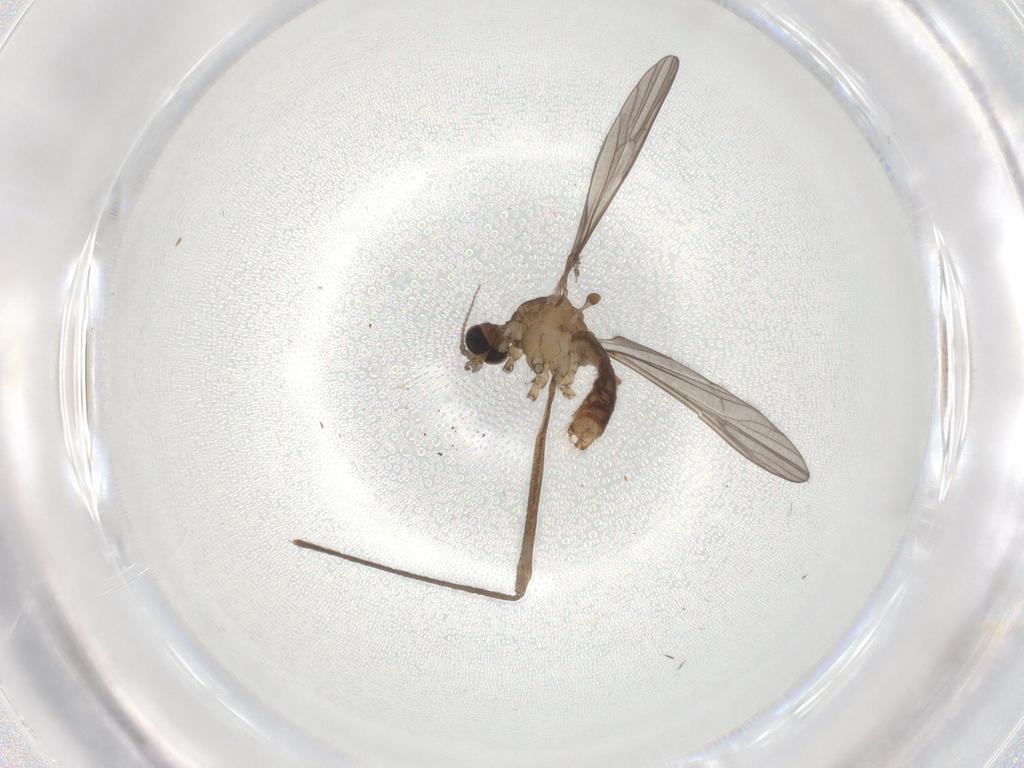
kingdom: Animalia
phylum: Arthropoda
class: Insecta
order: Diptera
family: Limoniidae
